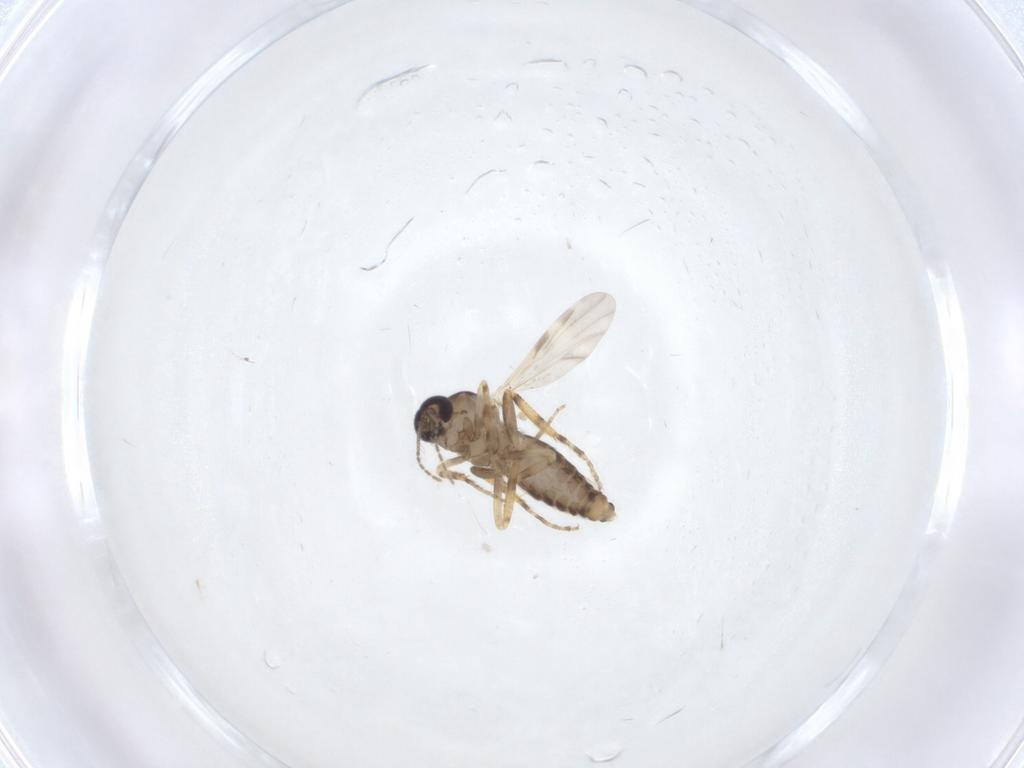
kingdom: Animalia
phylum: Arthropoda
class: Insecta
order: Diptera
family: Ceratopogonidae
